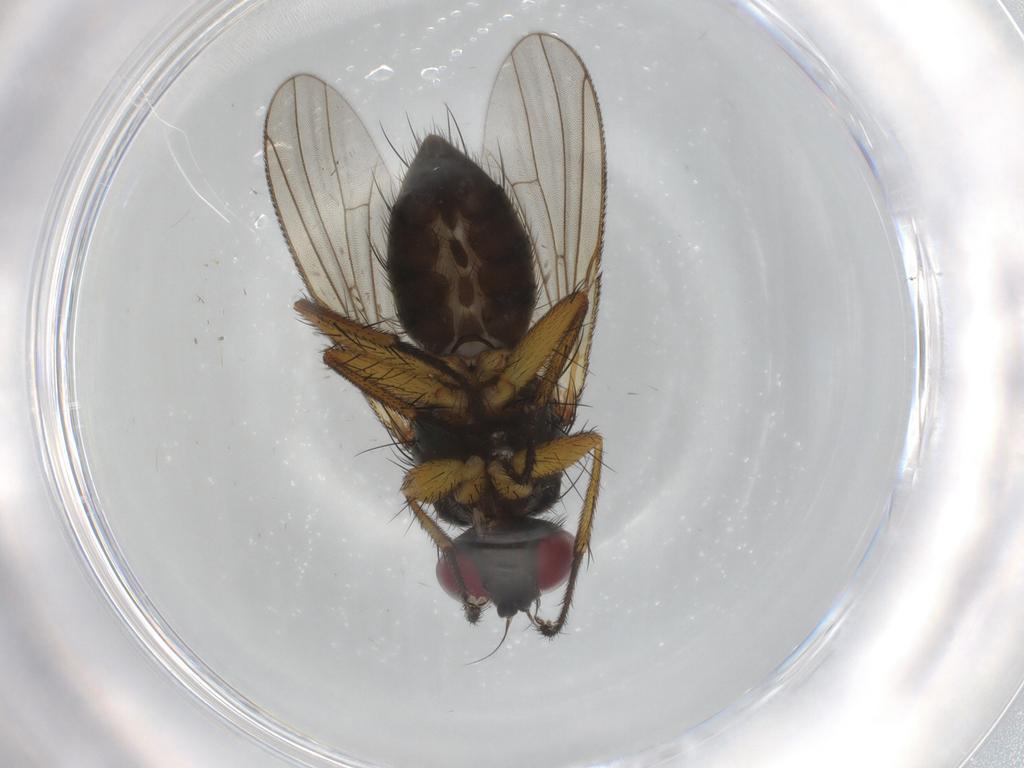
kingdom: Animalia
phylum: Arthropoda
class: Insecta
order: Diptera
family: Muscidae
